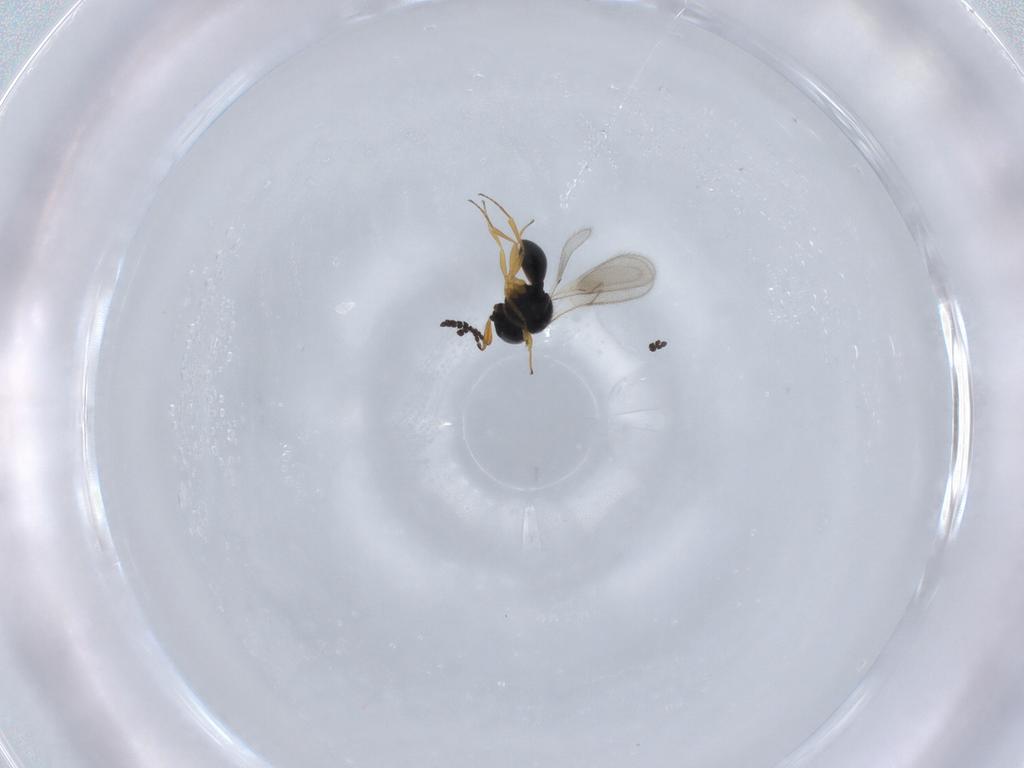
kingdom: Animalia
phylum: Arthropoda
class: Insecta
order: Hymenoptera
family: Scelionidae
